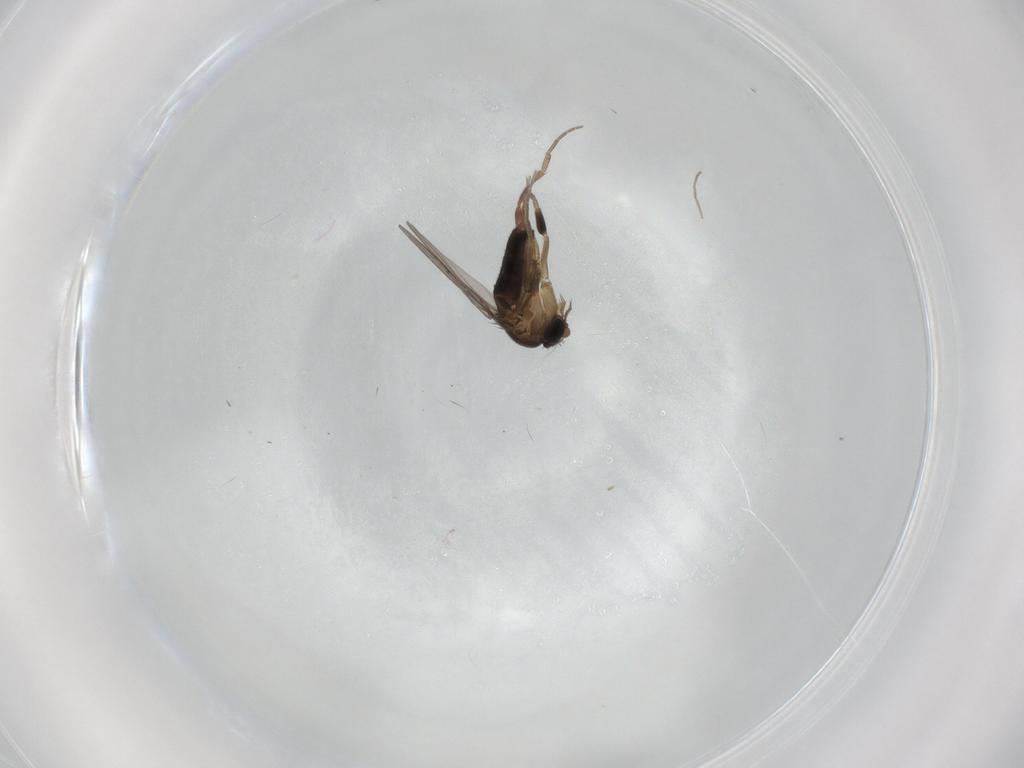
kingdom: Animalia
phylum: Arthropoda
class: Insecta
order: Diptera
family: Phoridae
